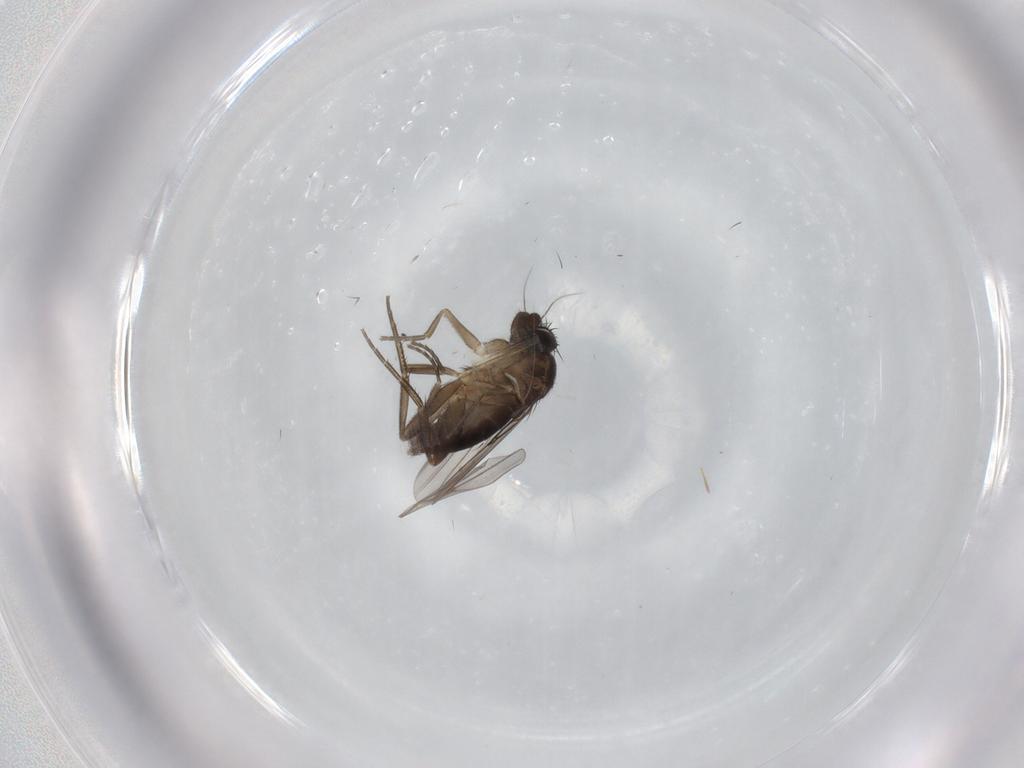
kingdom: Animalia
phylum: Arthropoda
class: Insecta
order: Diptera
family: Phoridae
